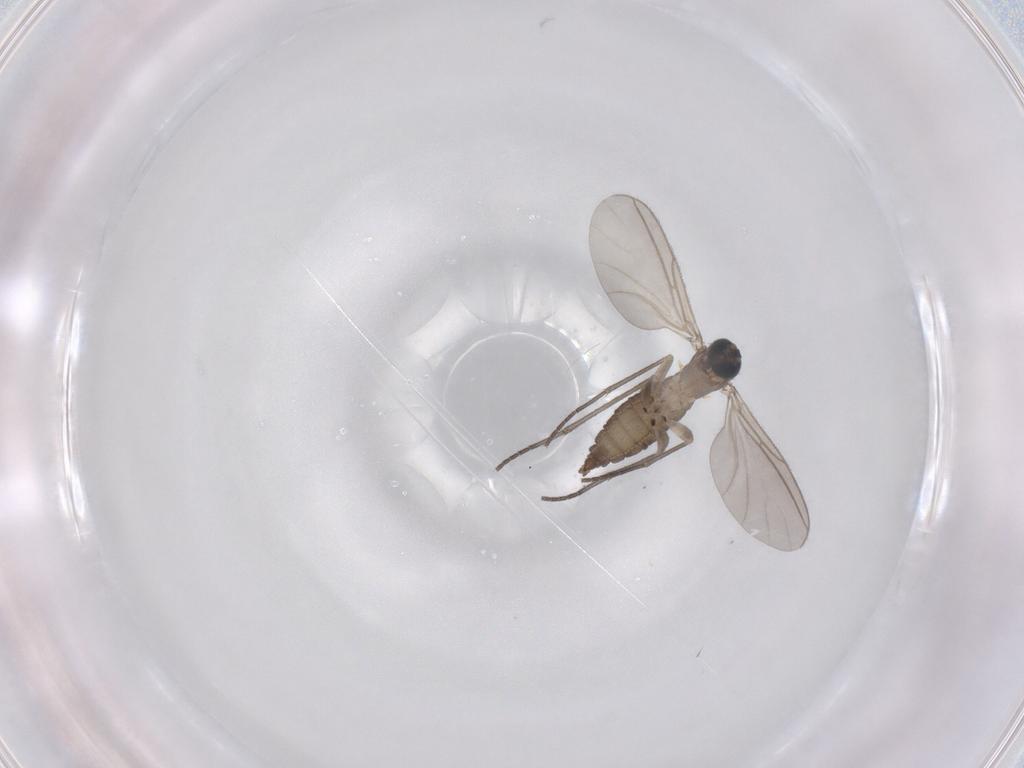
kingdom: Animalia
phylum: Arthropoda
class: Insecta
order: Diptera
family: Sciaridae
